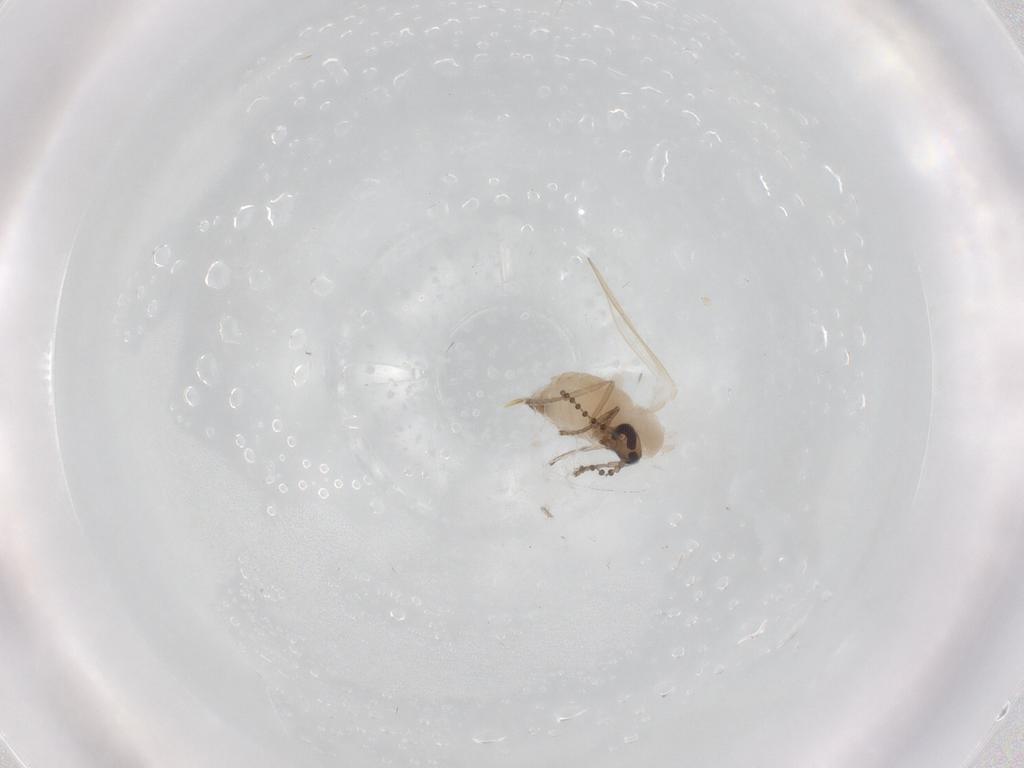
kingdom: Animalia
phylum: Arthropoda
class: Insecta
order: Diptera
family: Psychodidae
